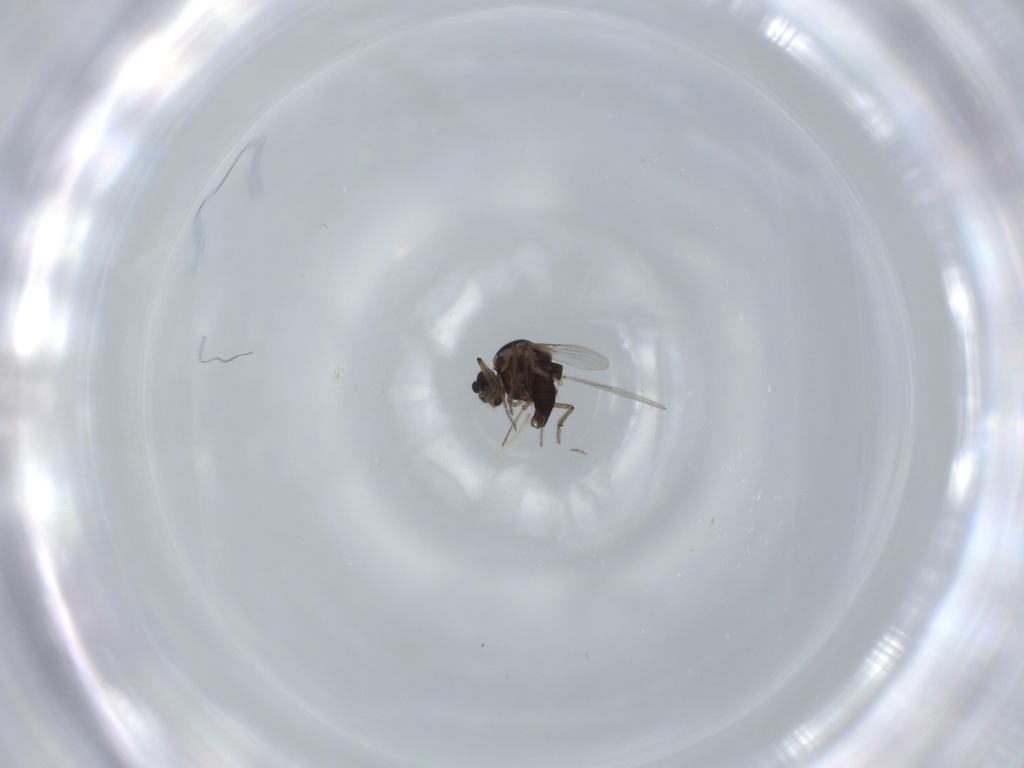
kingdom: Animalia
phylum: Arthropoda
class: Insecta
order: Diptera
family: Ceratopogonidae
